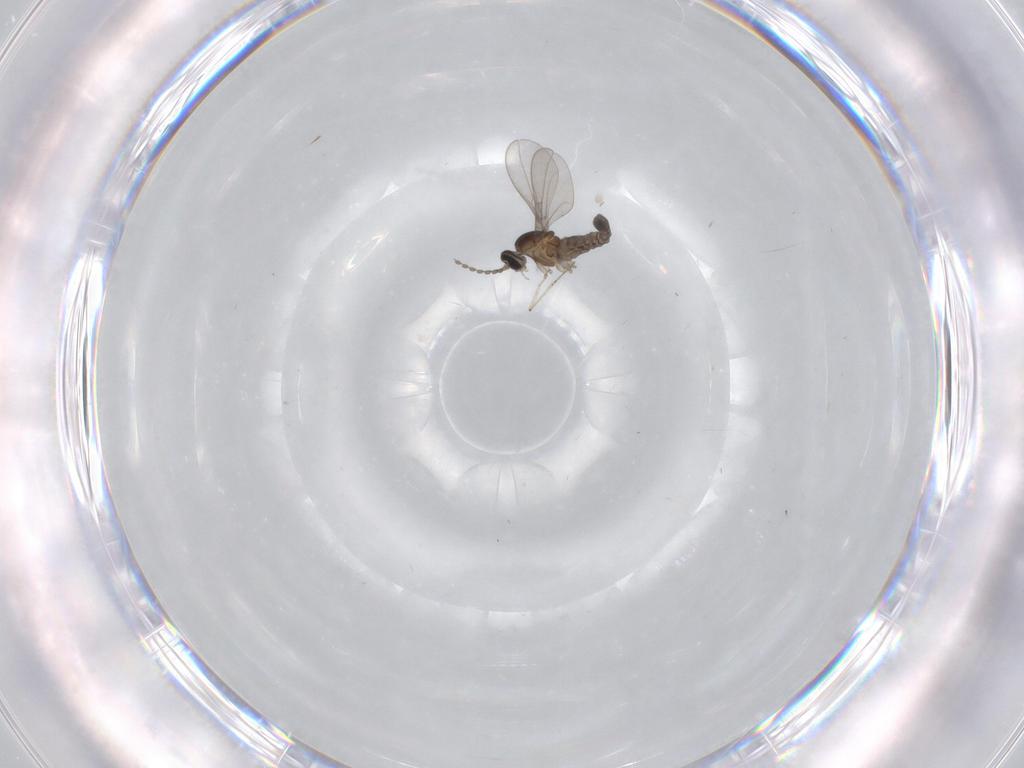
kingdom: Animalia
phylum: Arthropoda
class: Insecta
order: Diptera
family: Cecidomyiidae
